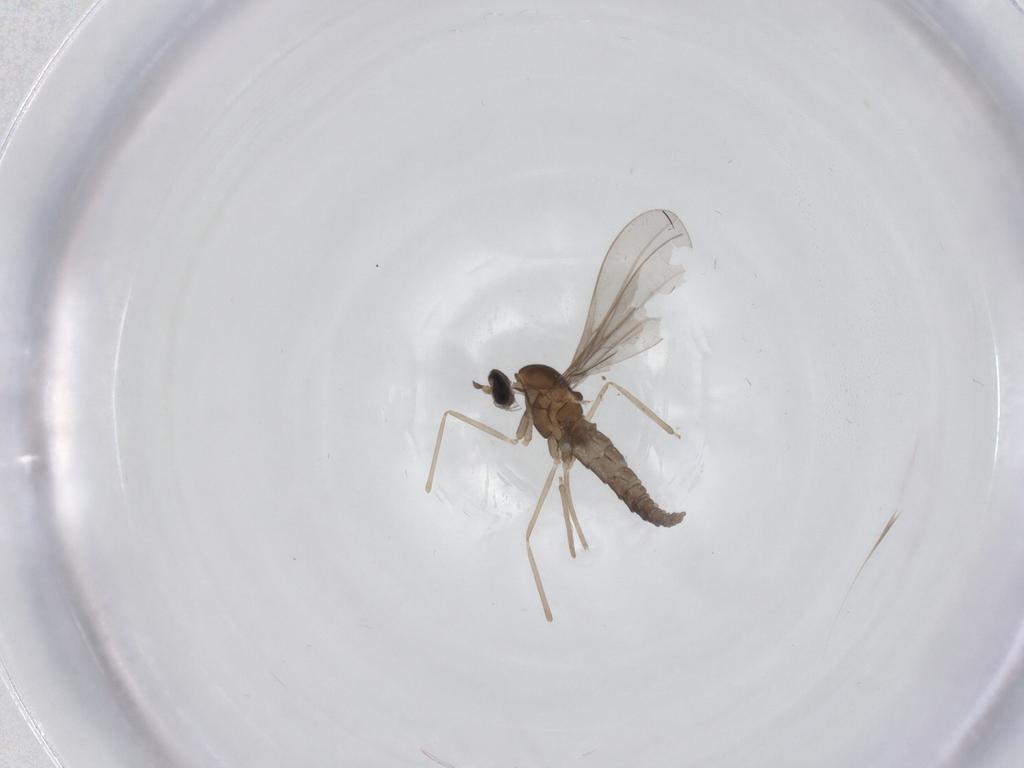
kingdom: Animalia
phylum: Arthropoda
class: Insecta
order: Diptera
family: Cecidomyiidae
